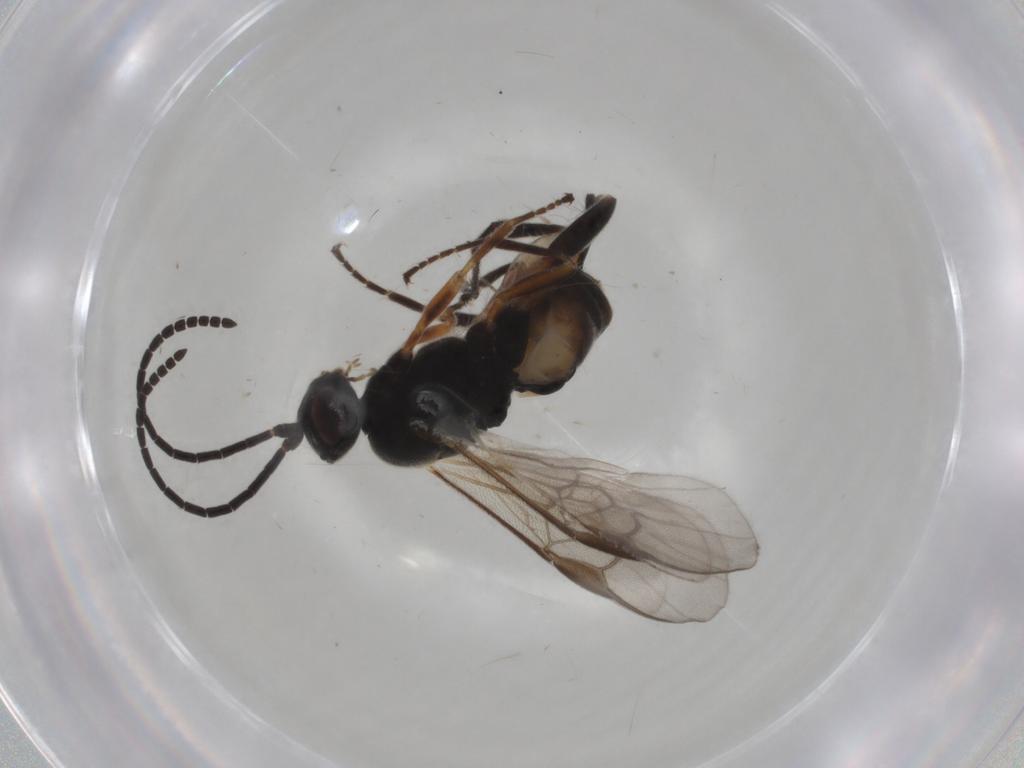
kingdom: Animalia
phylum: Arthropoda
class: Insecta
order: Hymenoptera
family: Braconidae
